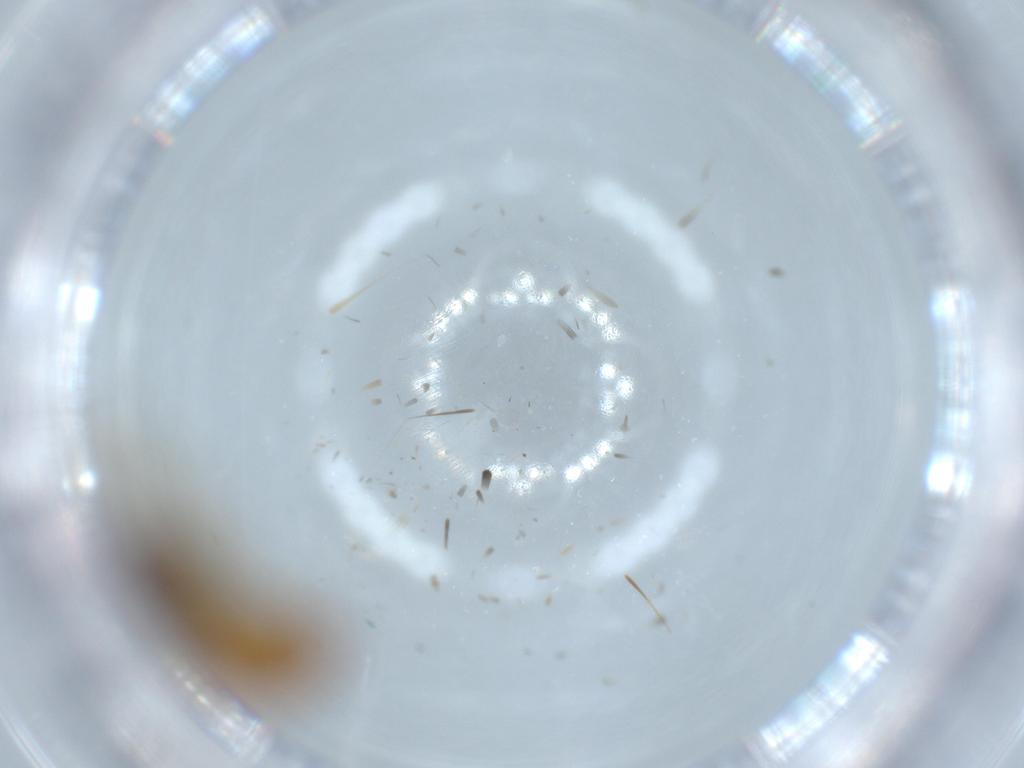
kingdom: Animalia
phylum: Arthropoda
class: Insecta
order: Diptera
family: Drosophilidae
